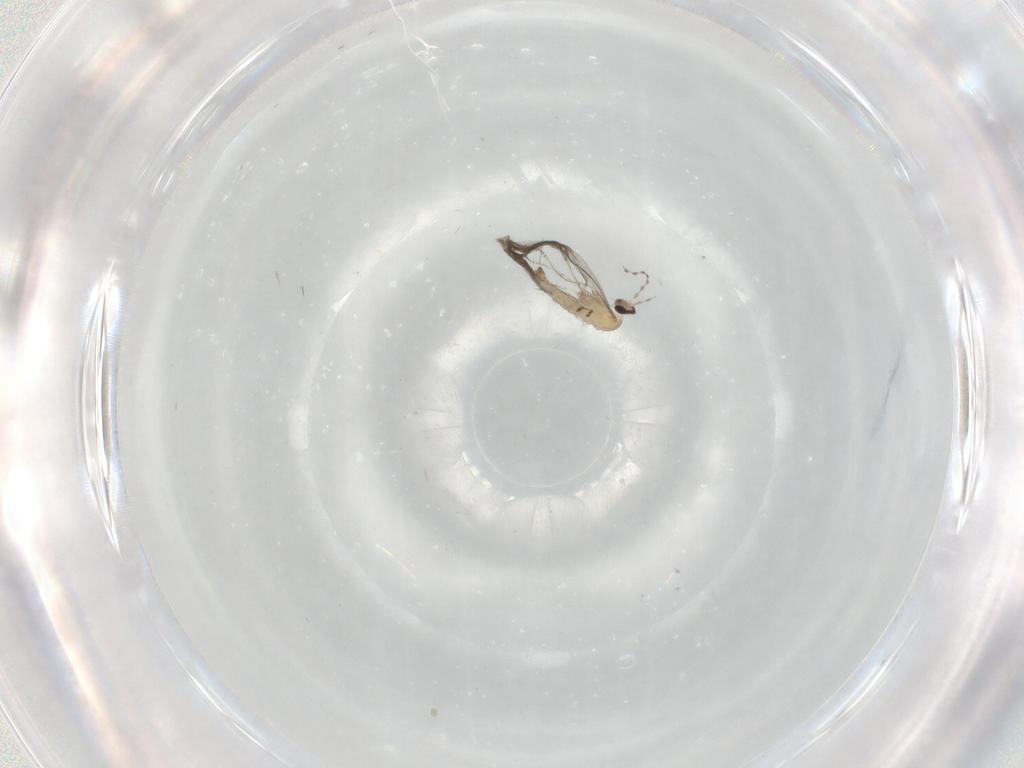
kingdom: Animalia
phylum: Arthropoda
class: Insecta
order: Diptera
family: Cecidomyiidae
